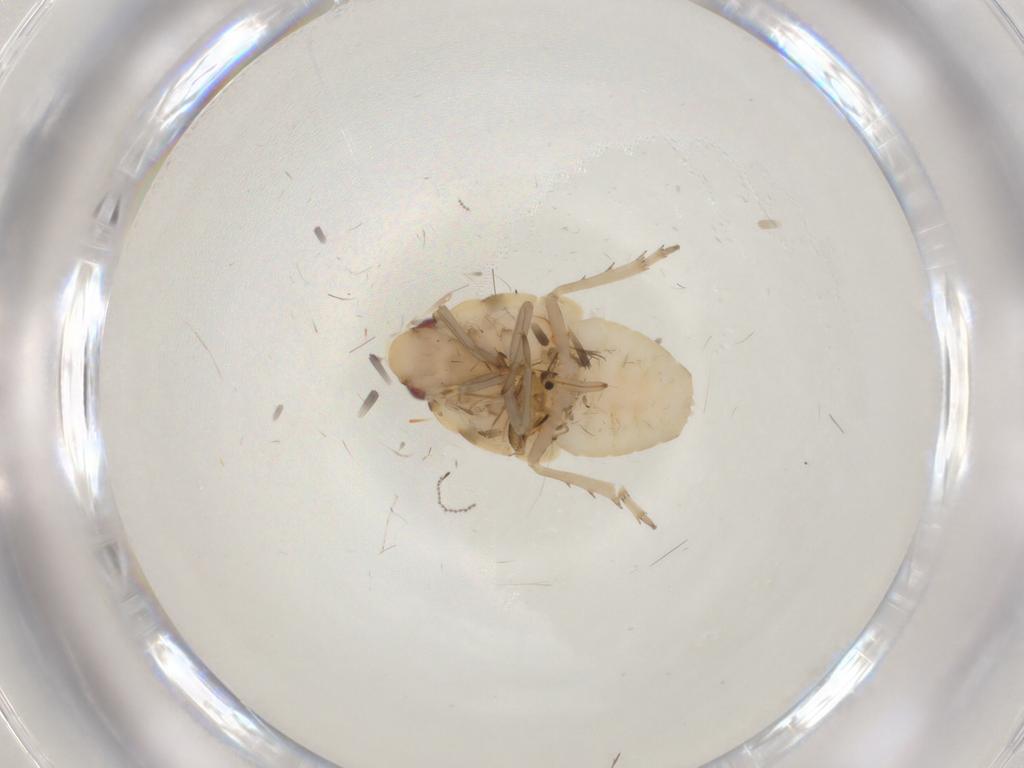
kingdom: Animalia
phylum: Arthropoda
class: Insecta
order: Hemiptera
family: Flatidae
